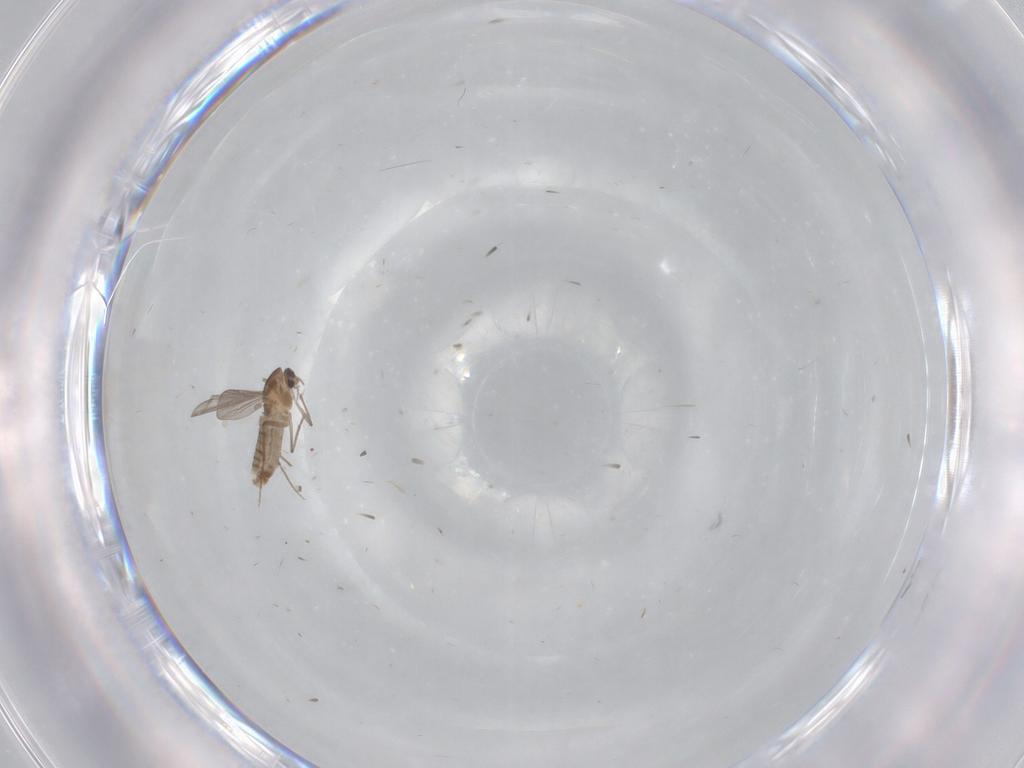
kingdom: Animalia
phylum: Arthropoda
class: Insecta
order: Diptera
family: Chironomidae
